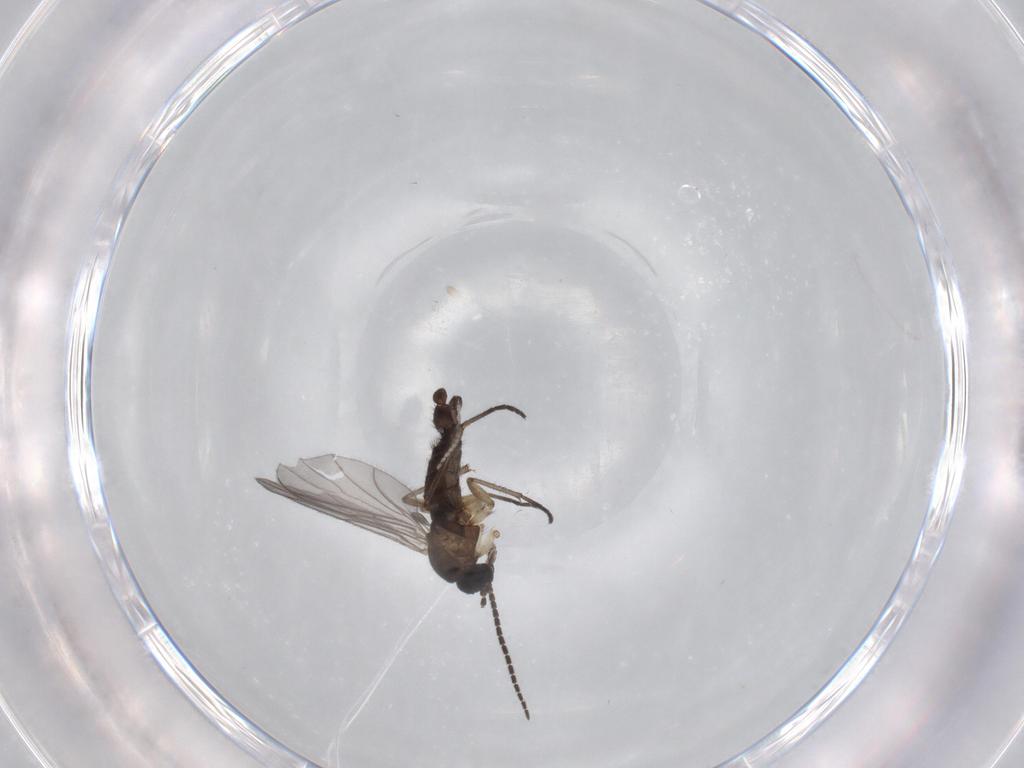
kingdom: Animalia
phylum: Arthropoda
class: Insecta
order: Diptera
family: Sciaridae
